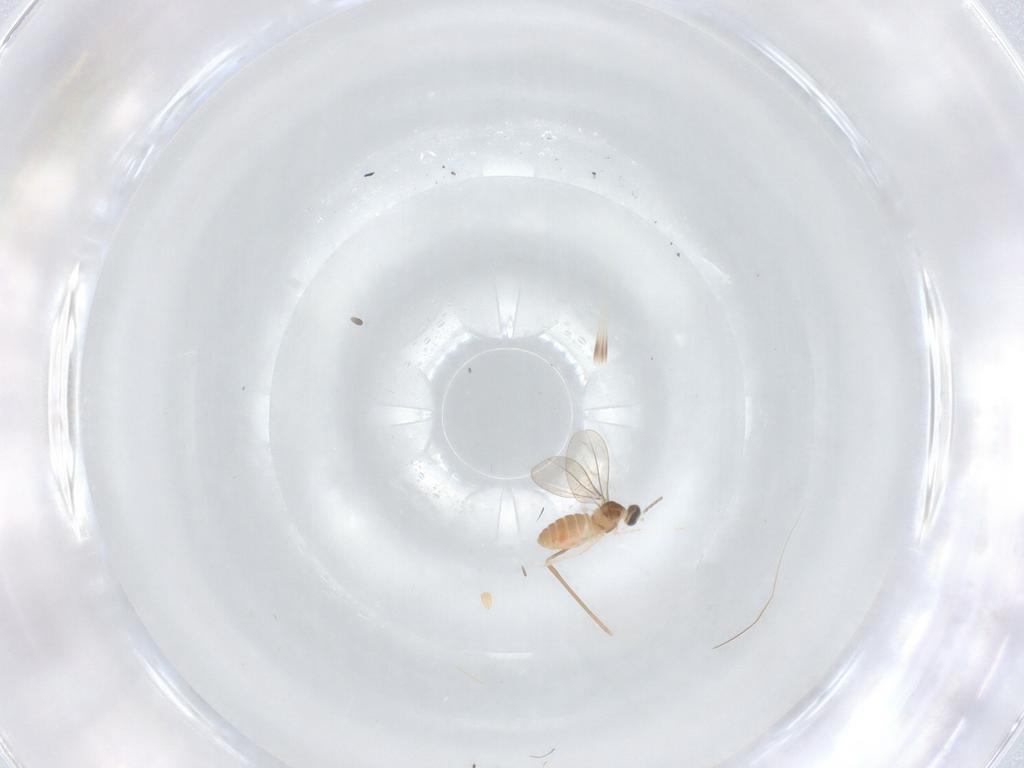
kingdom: Animalia
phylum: Arthropoda
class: Insecta
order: Diptera
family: Cecidomyiidae
